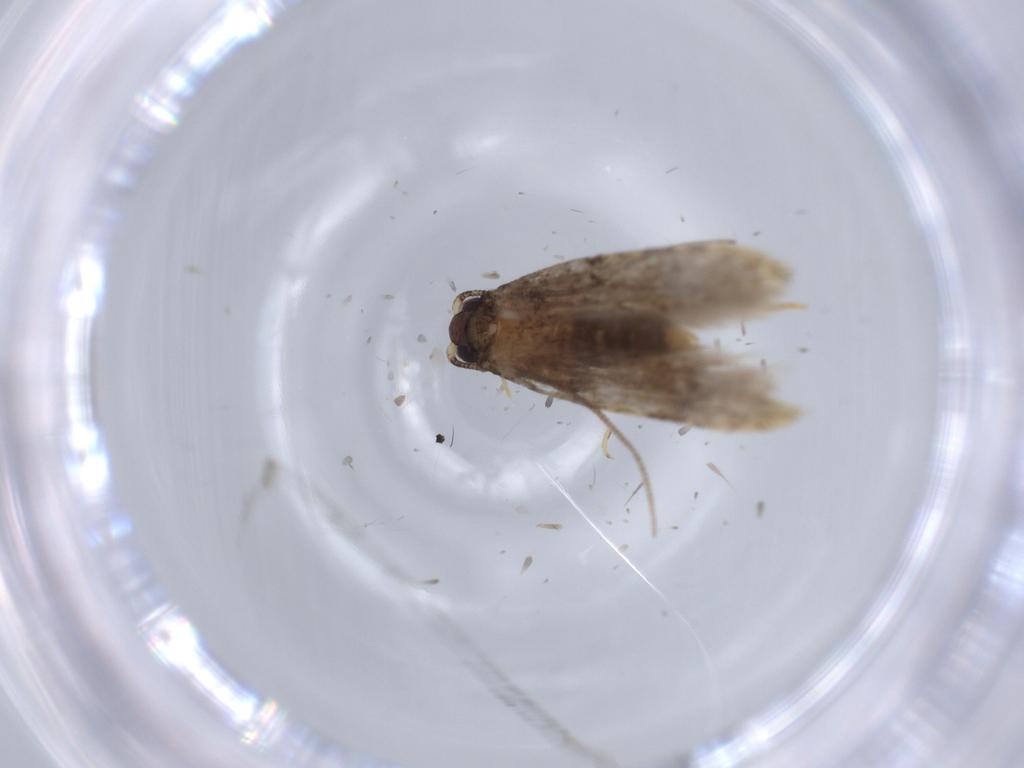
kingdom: Animalia
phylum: Arthropoda
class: Insecta
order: Lepidoptera
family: Tineidae
